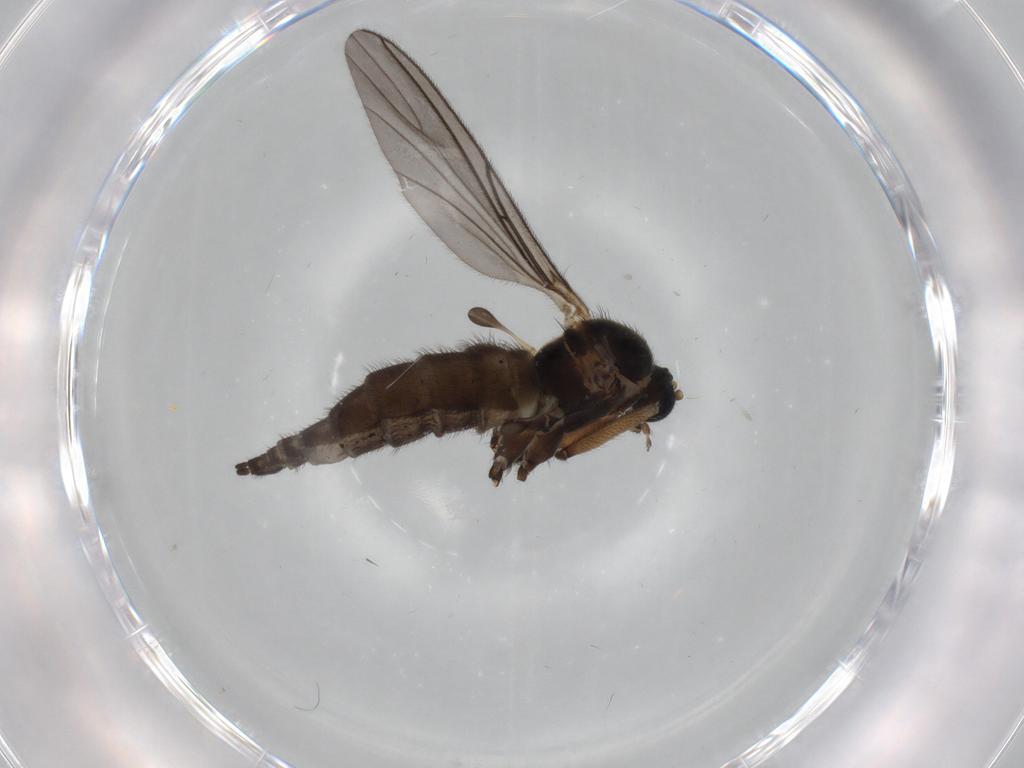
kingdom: Animalia
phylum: Arthropoda
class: Insecta
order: Diptera
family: Sciaridae
